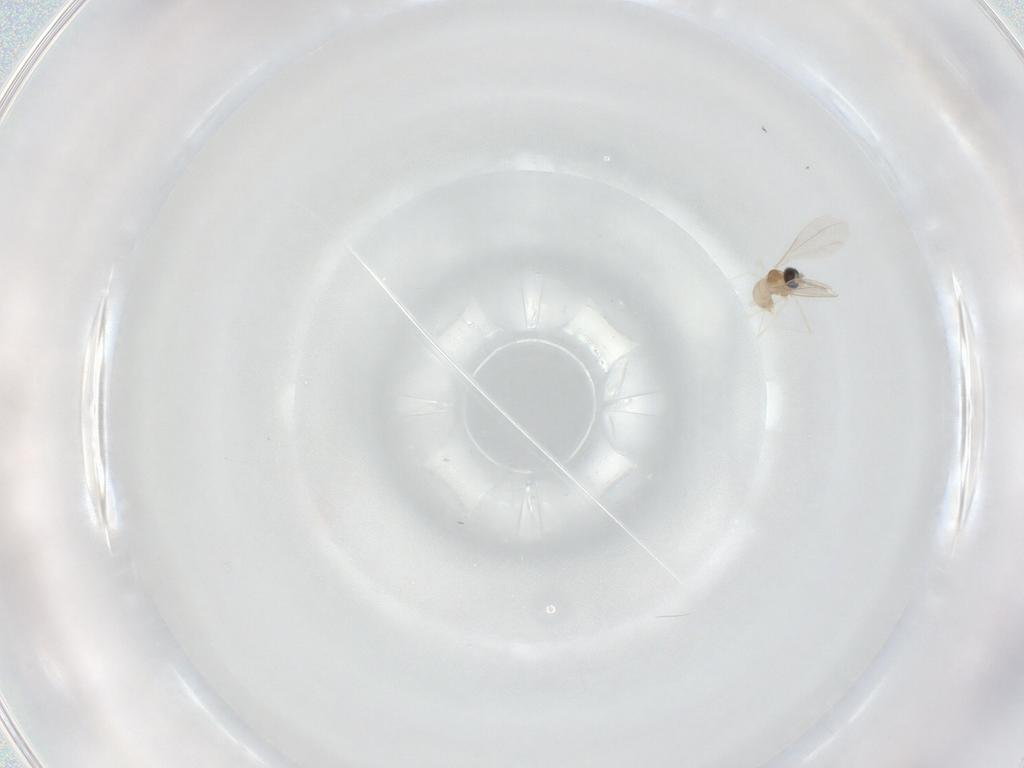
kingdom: Animalia
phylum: Arthropoda
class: Insecta
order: Diptera
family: Cecidomyiidae
